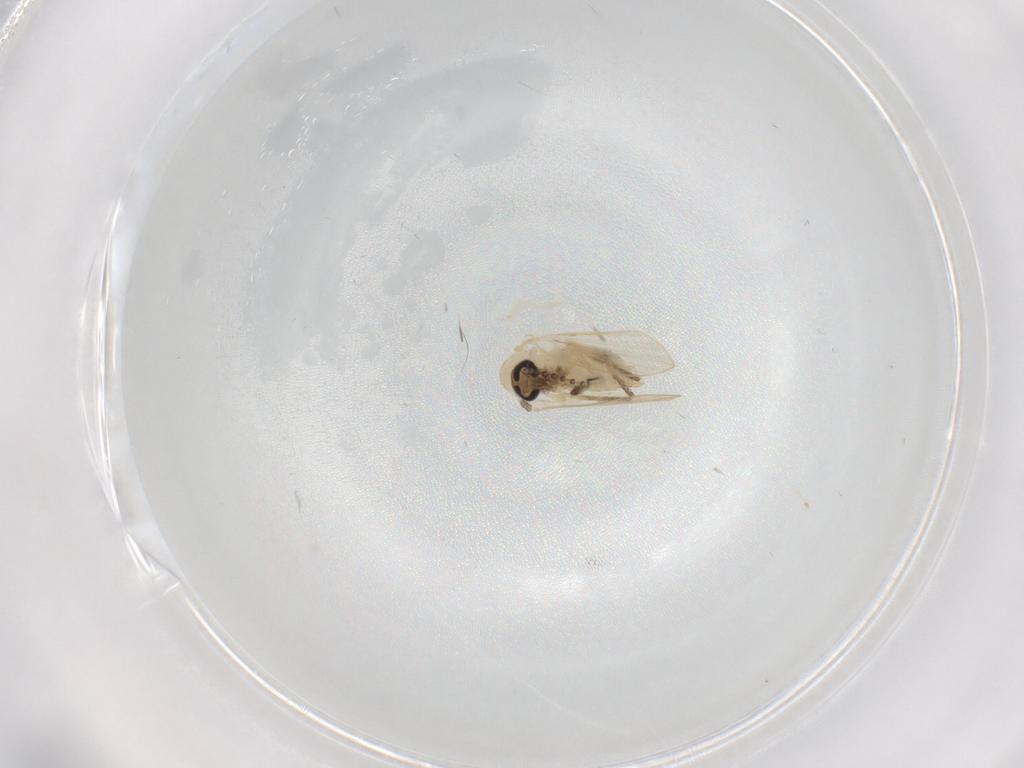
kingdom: Animalia
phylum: Arthropoda
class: Insecta
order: Diptera
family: Psychodidae
